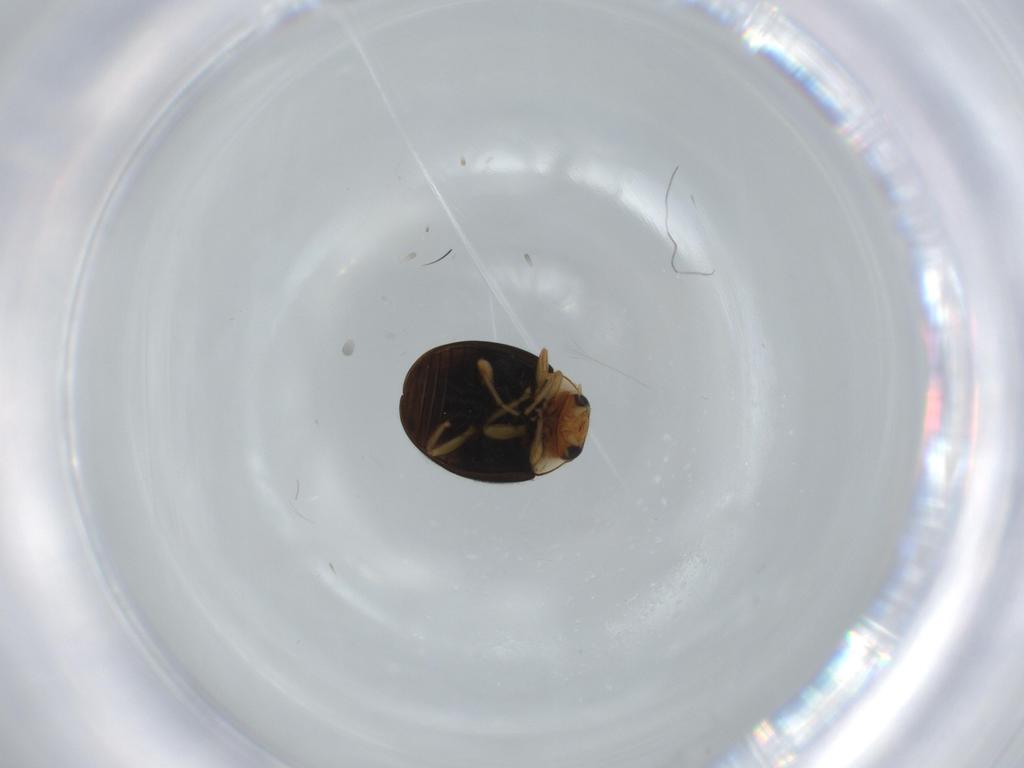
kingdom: Animalia
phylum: Arthropoda
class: Insecta
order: Coleoptera
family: Coccinellidae
